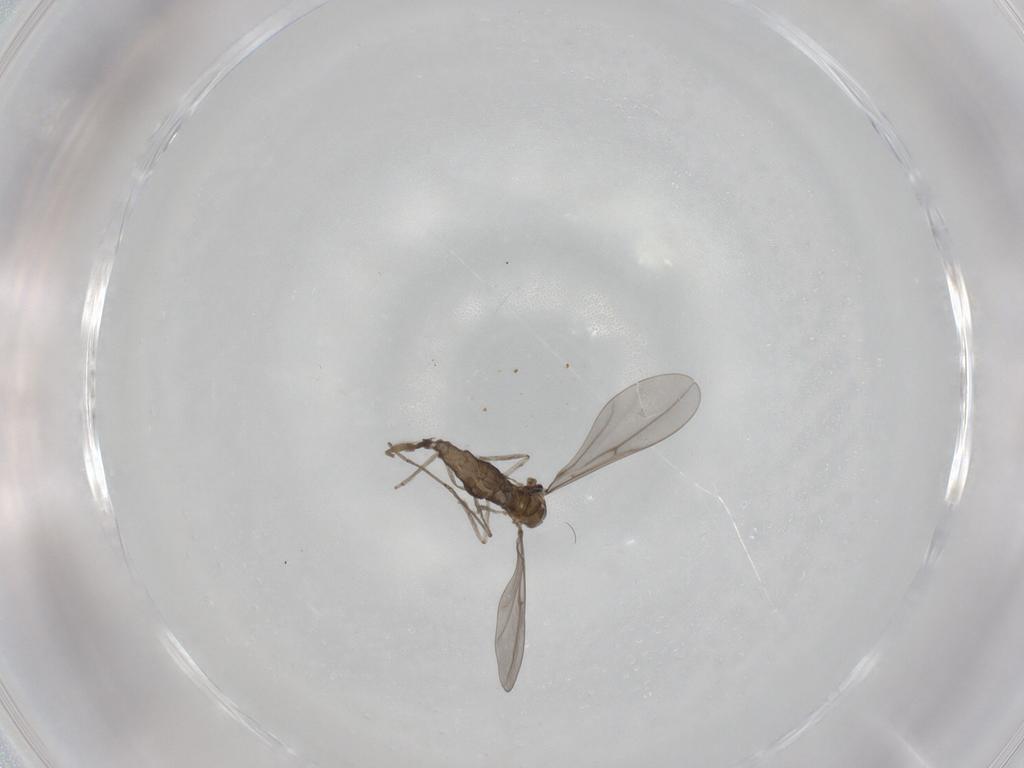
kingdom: Animalia
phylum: Arthropoda
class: Insecta
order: Diptera
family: Cecidomyiidae
